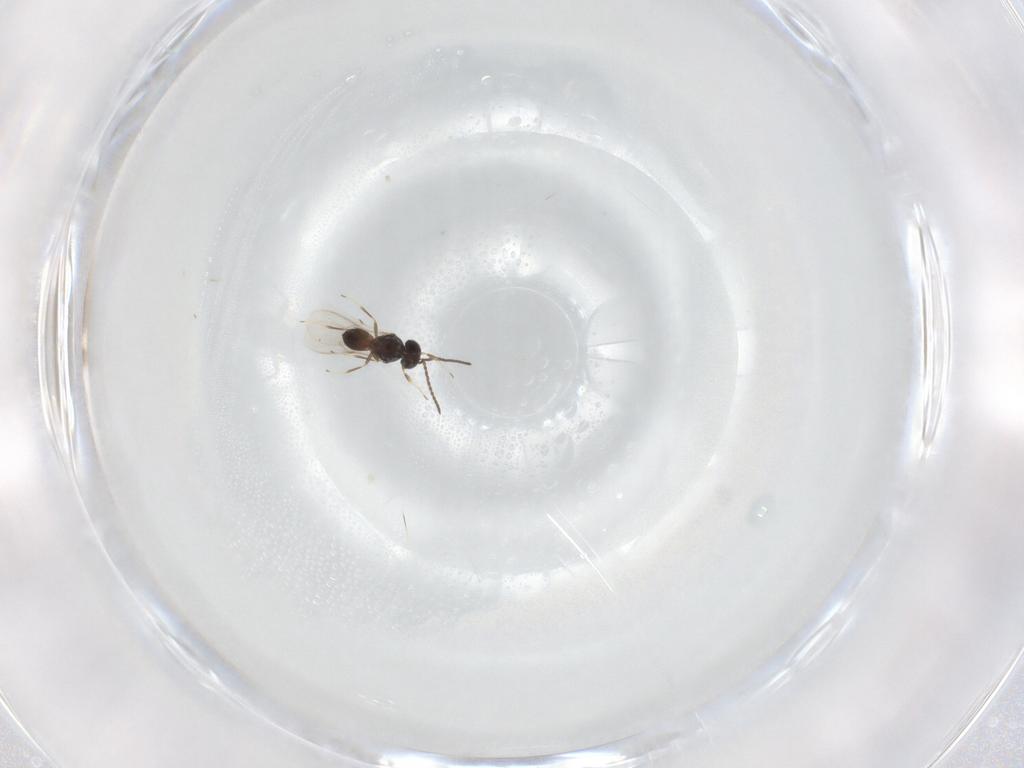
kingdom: Animalia
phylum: Arthropoda
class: Insecta
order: Hymenoptera
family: Scelionidae
